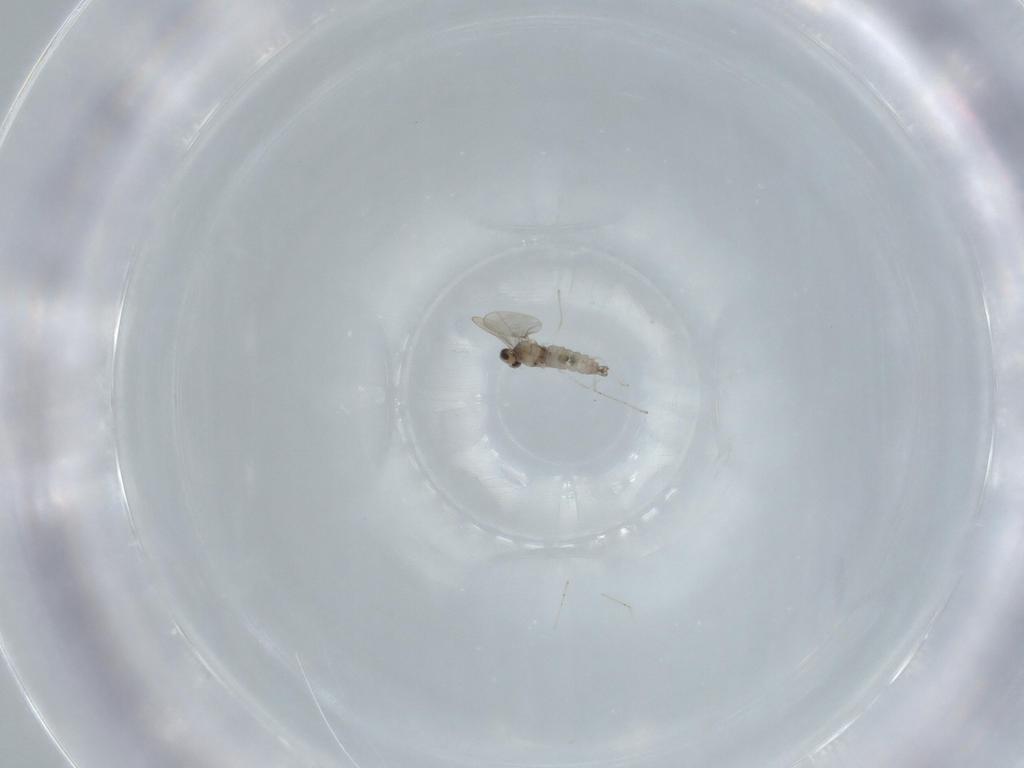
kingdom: Animalia
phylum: Arthropoda
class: Insecta
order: Diptera
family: Cecidomyiidae
